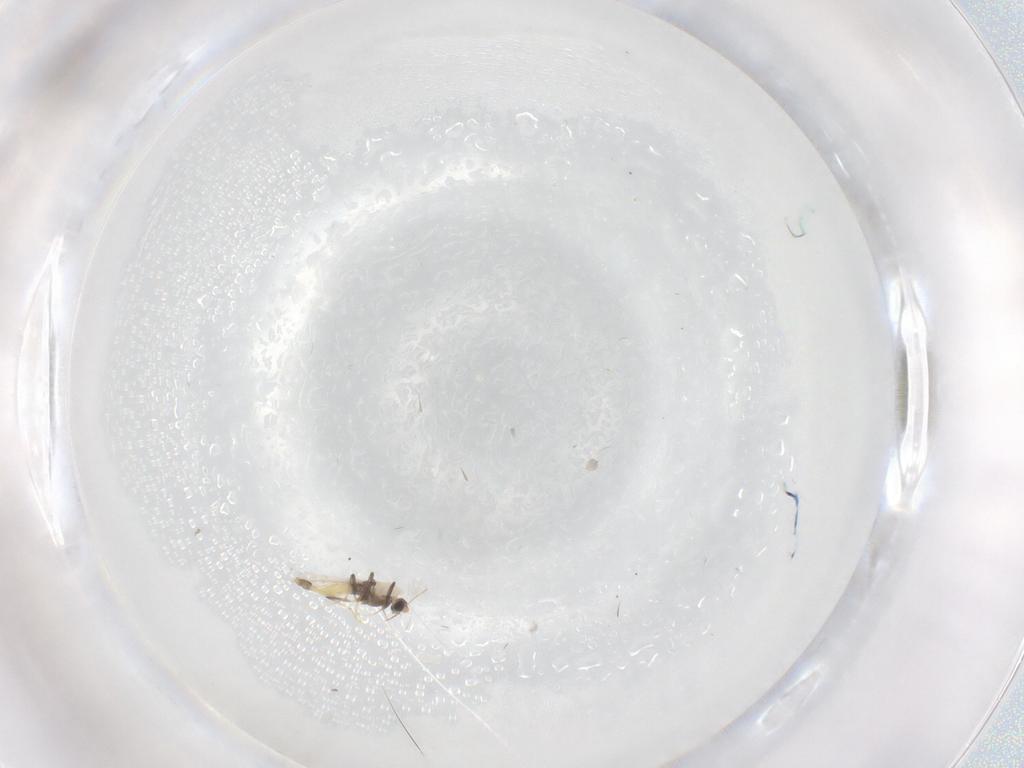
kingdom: Animalia
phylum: Arthropoda
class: Insecta
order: Diptera
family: Chironomidae
